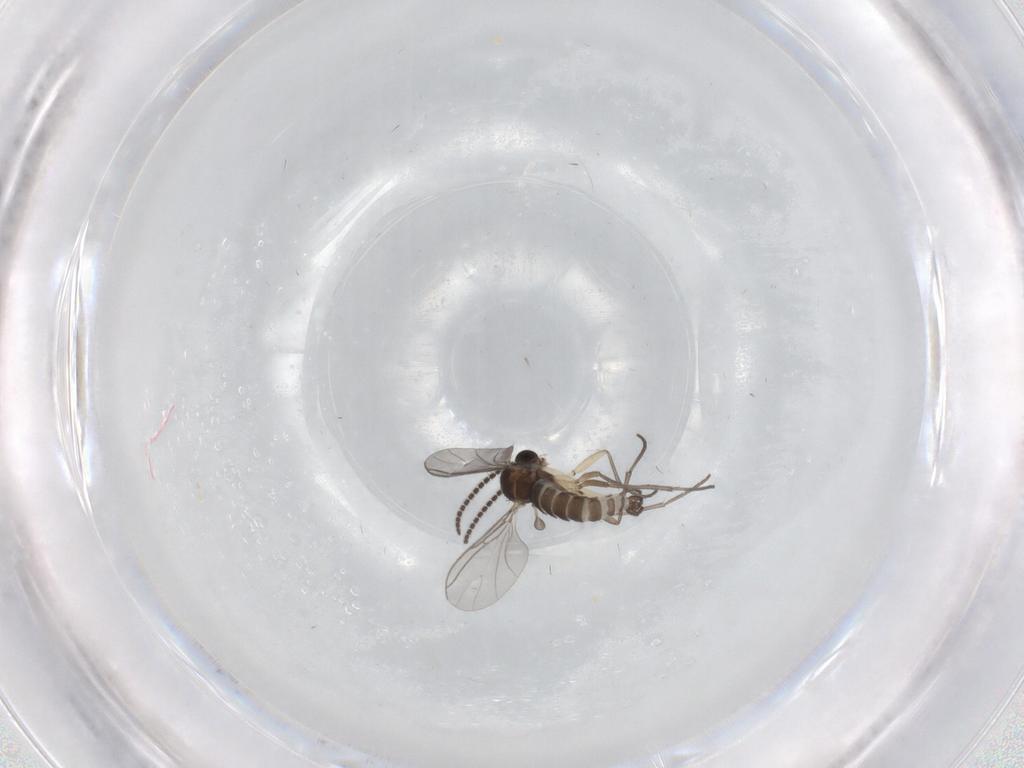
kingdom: Animalia
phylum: Arthropoda
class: Insecta
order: Diptera
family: Sciaridae
